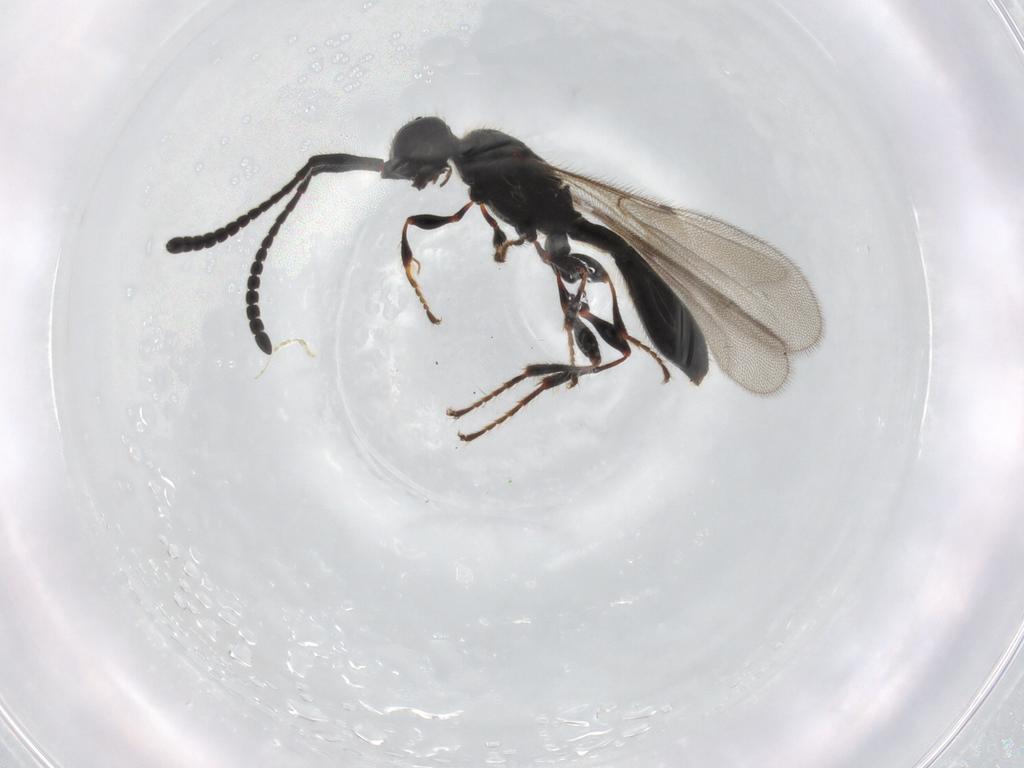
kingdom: Animalia
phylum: Arthropoda
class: Insecta
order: Hymenoptera
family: Diapriidae
